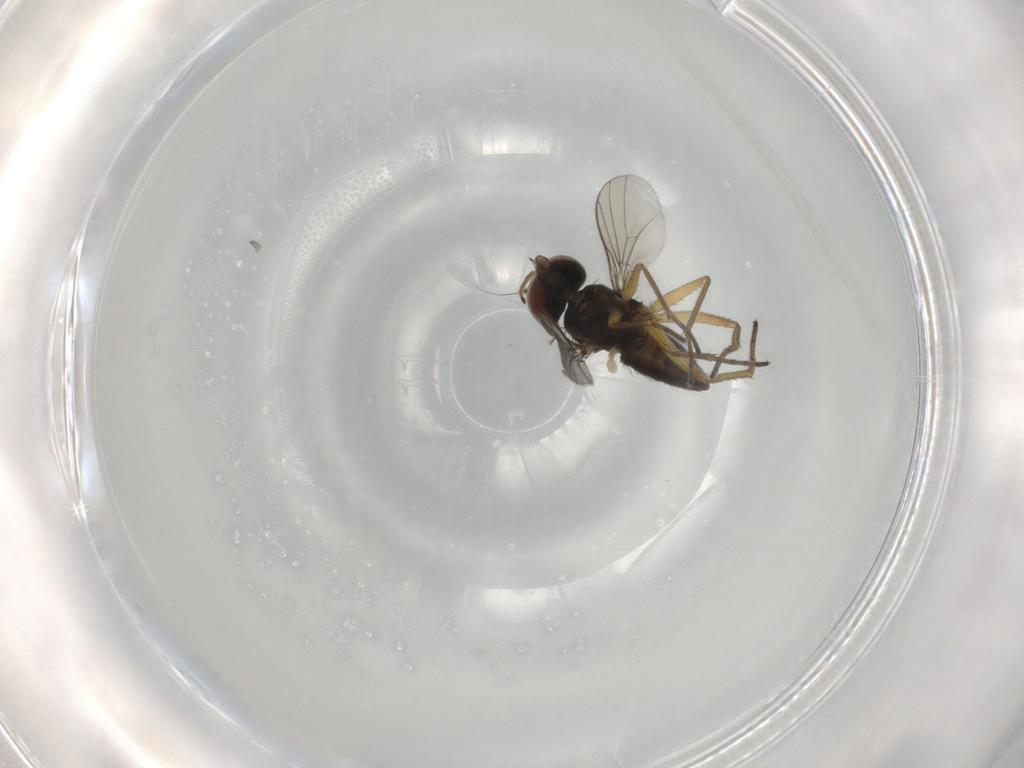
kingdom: Animalia
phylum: Arthropoda
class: Insecta
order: Diptera
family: Dolichopodidae
